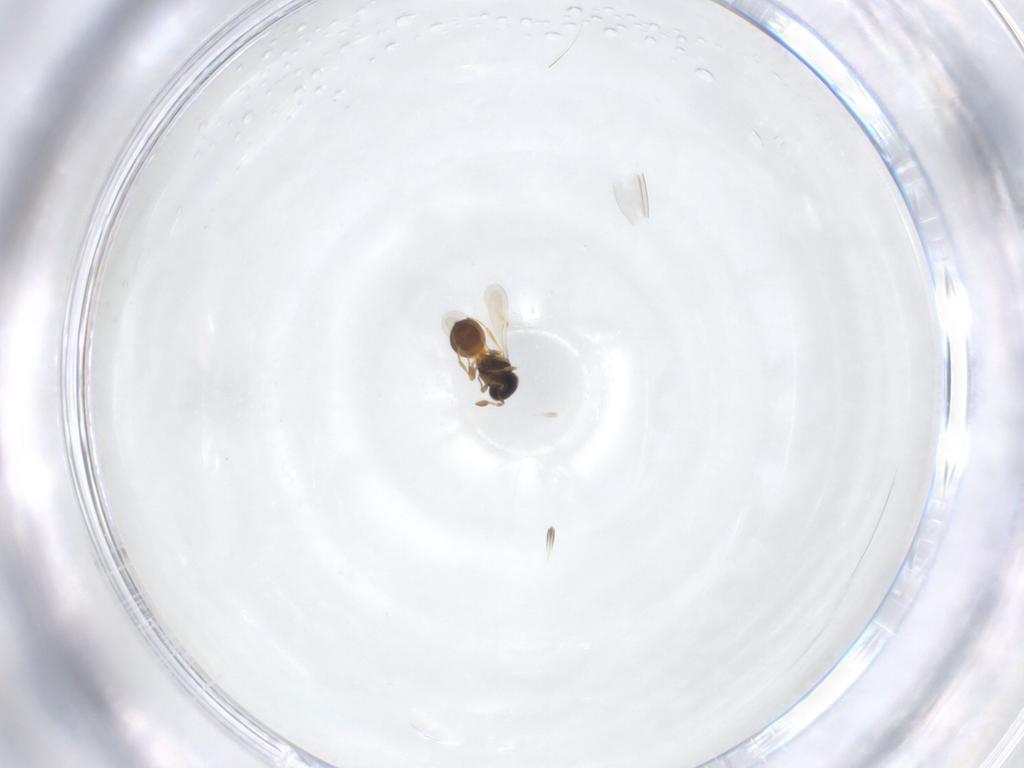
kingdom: Animalia
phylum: Arthropoda
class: Insecta
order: Hymenoptera
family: Scelionidae
